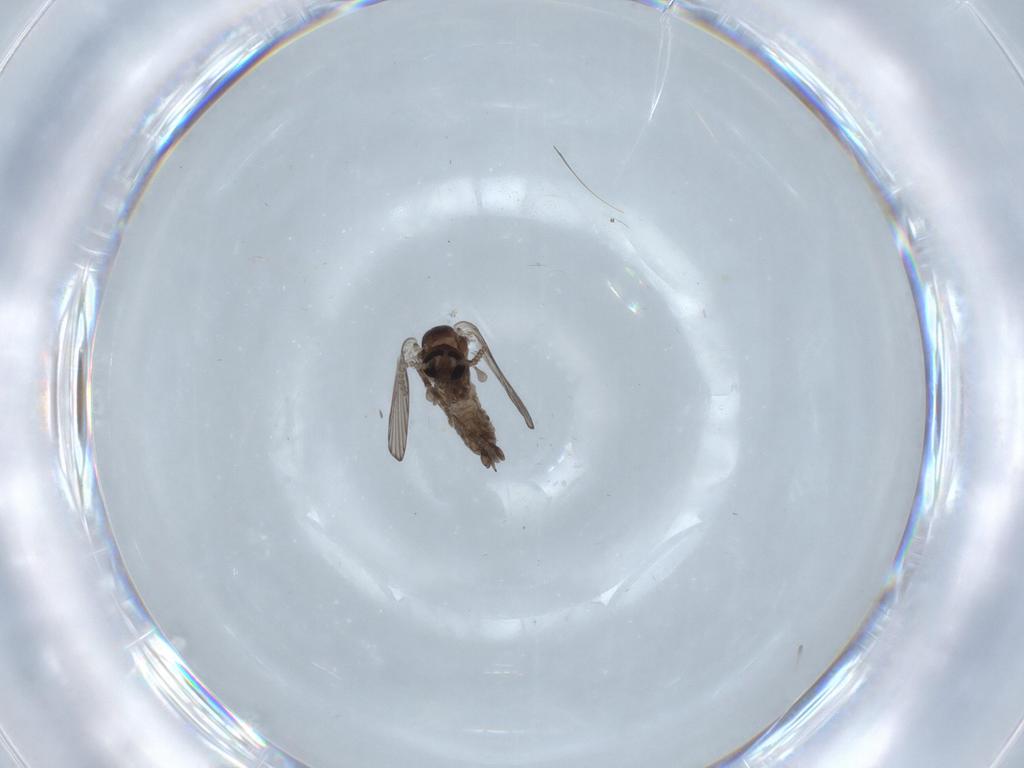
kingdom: Animalia
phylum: Arthropoda
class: Insecta
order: Diptera
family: Psychodidae
